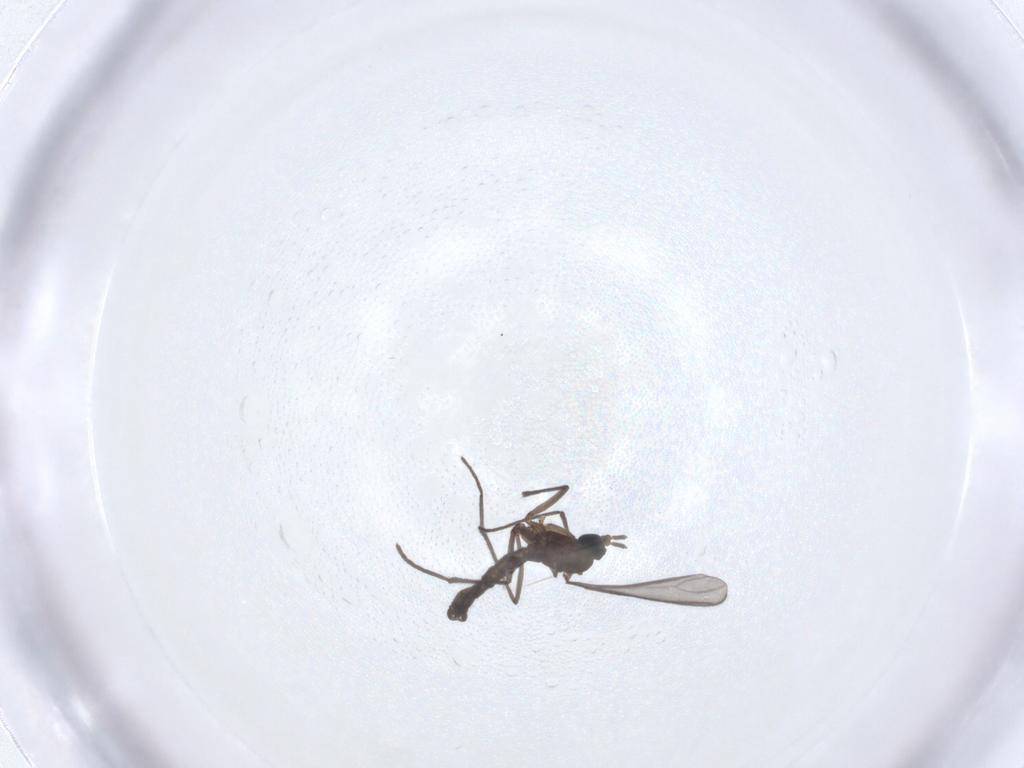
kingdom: Animalia
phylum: Arthropoda
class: Insecta
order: Diptera
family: Sciaridae
